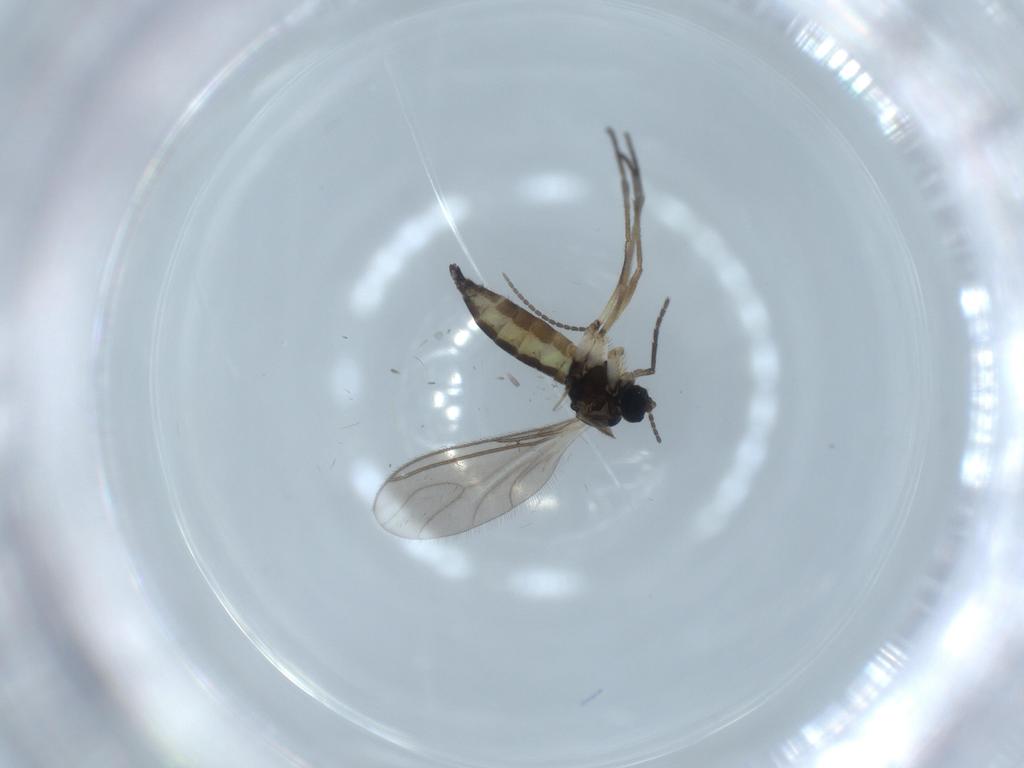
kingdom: Animalia
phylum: Arthropoda
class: Insecta
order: Diptera
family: Sciaridae
